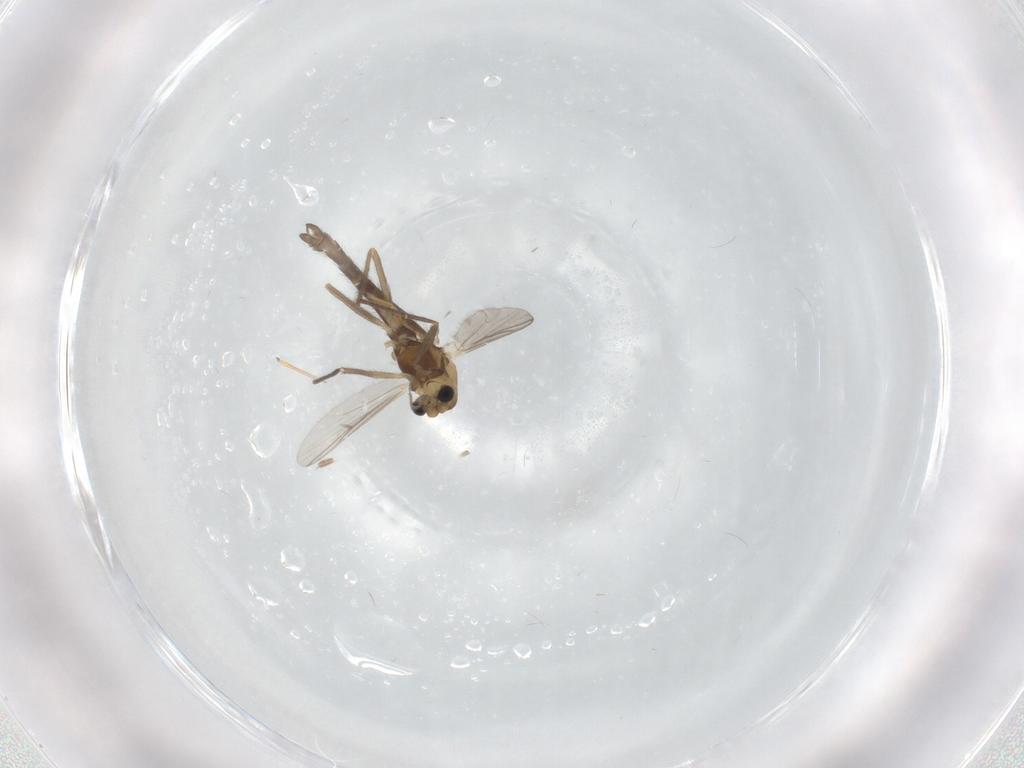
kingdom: Animalia
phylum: Arthropoda
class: Insecta
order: Diptera
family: Chironomidae
